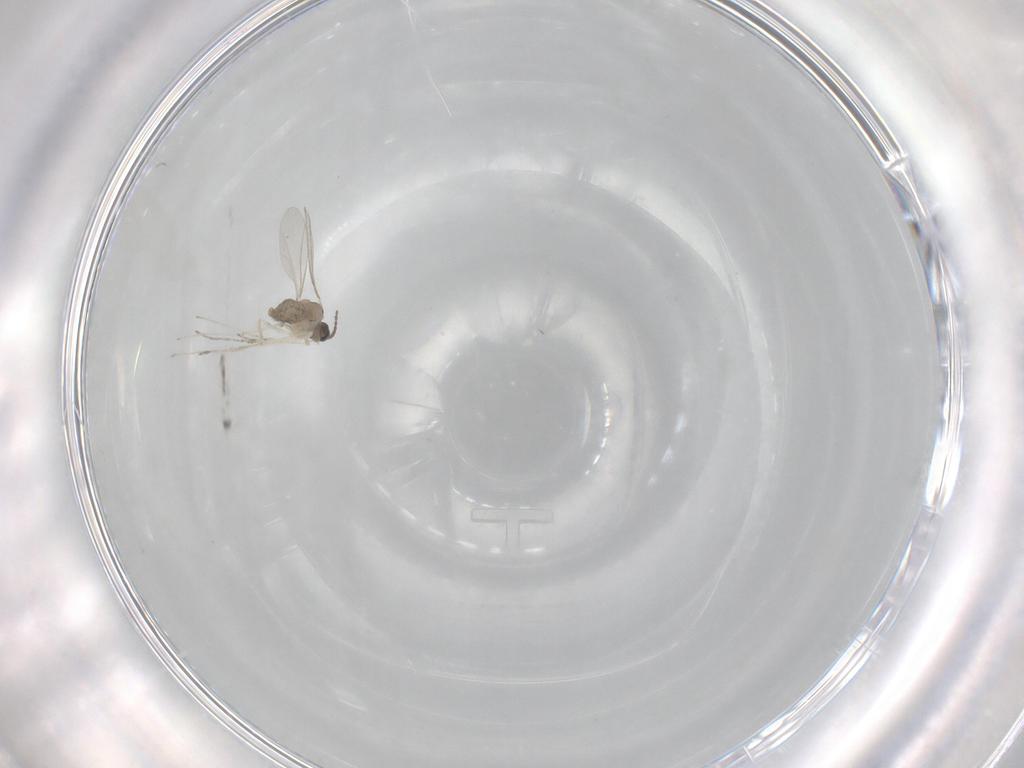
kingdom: Animalia
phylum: Arthropoda
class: Insecta
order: Diptera
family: Cecidomyiidae
